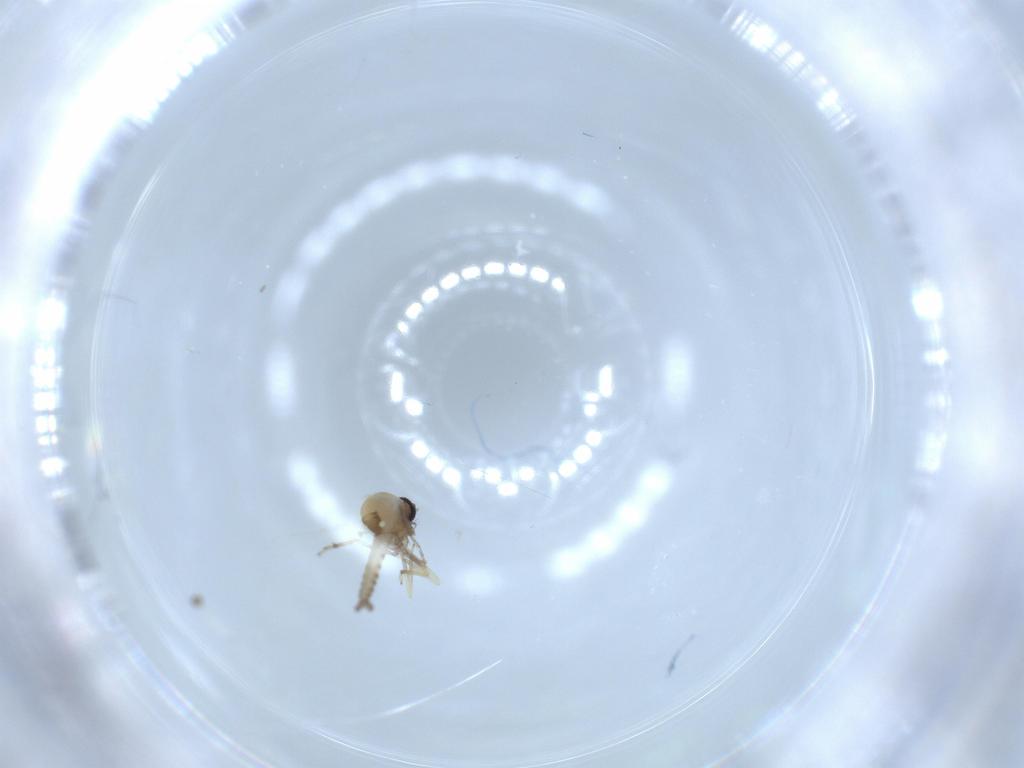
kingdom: Animalia
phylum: Arthropoda
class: Insecta
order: Diptera
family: Ceratopogonidae
